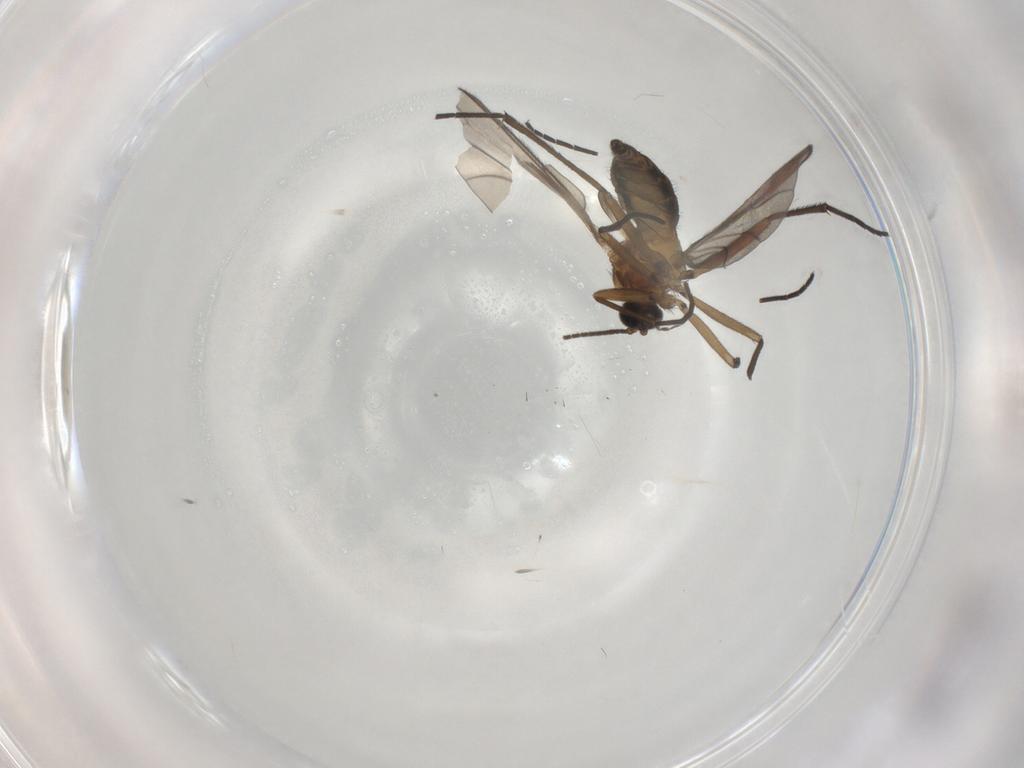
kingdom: Animalia
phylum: Arthropoda
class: Insecta
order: Diptera
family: Sciaridae
